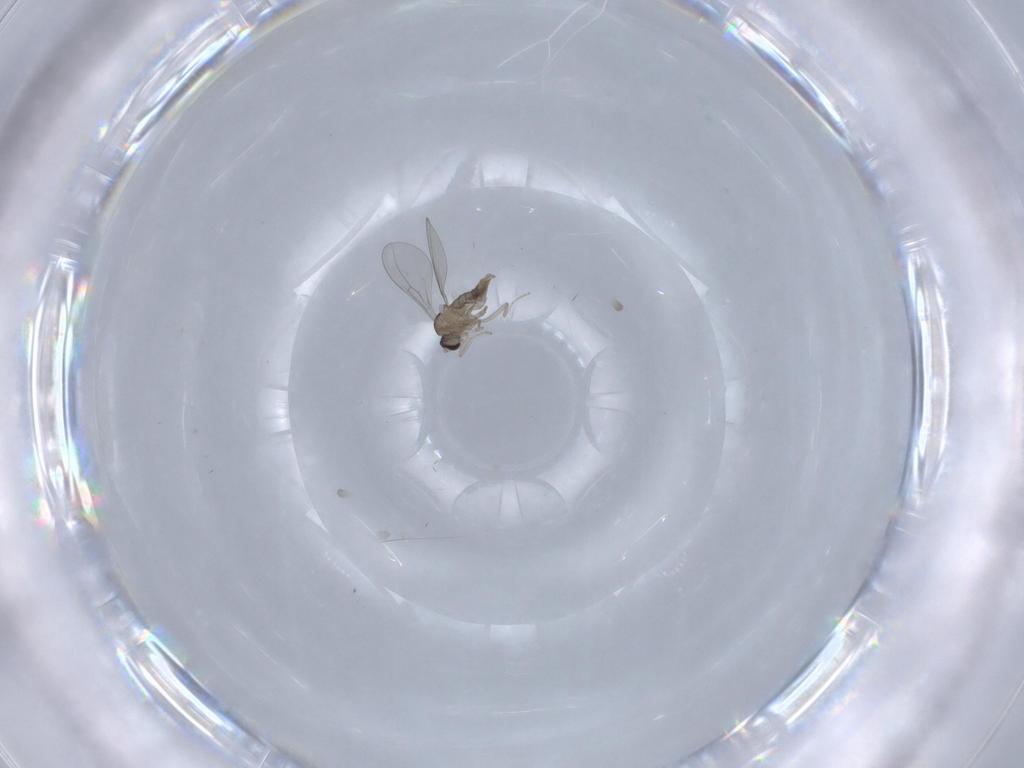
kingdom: Animalia
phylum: Arthropoda
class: Insecta
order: Diptera
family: Cecidomyiidae
